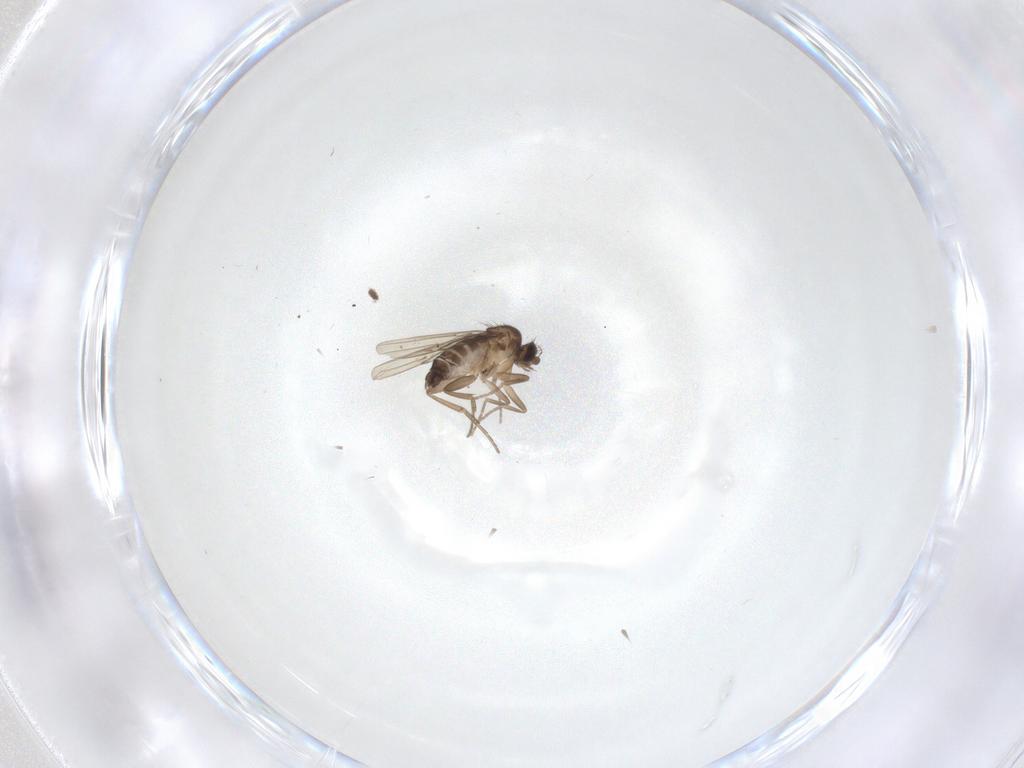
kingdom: Animalia
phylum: Arthropoda
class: Insecta
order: Diptera
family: Phoridae
